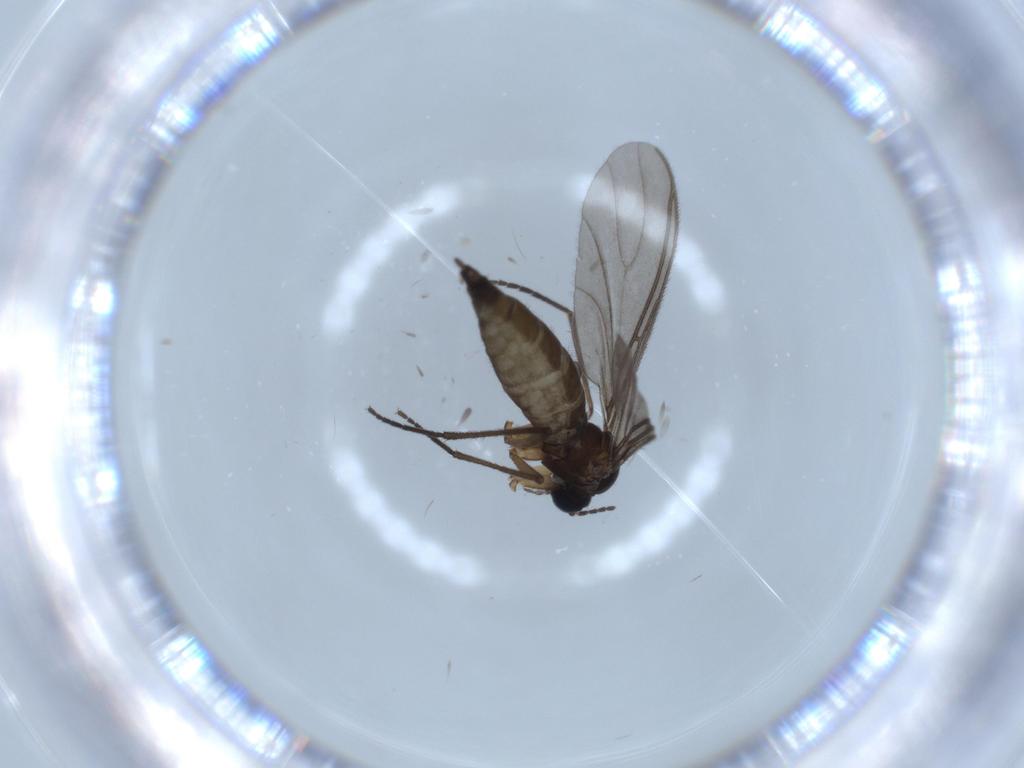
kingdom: Animalia
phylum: Arthropoda
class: Insecta
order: Diptera
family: Sciaridae
